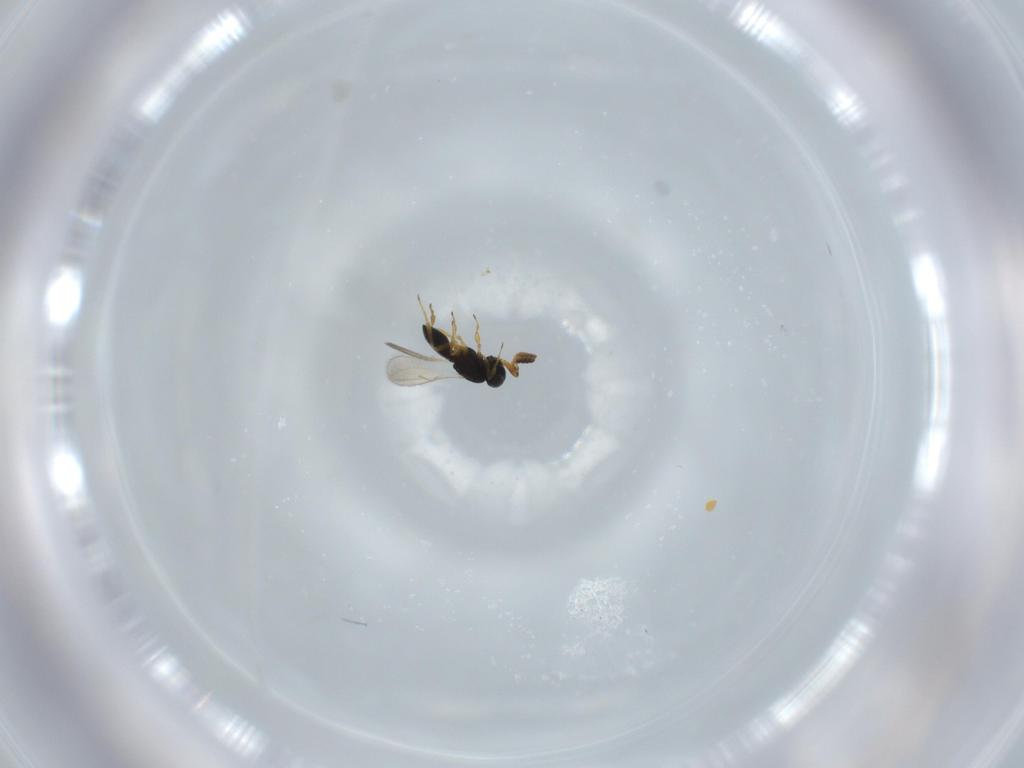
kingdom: Animalia
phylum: Arthropoda
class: Insecta
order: Hymenoptera
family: Scelionidae
